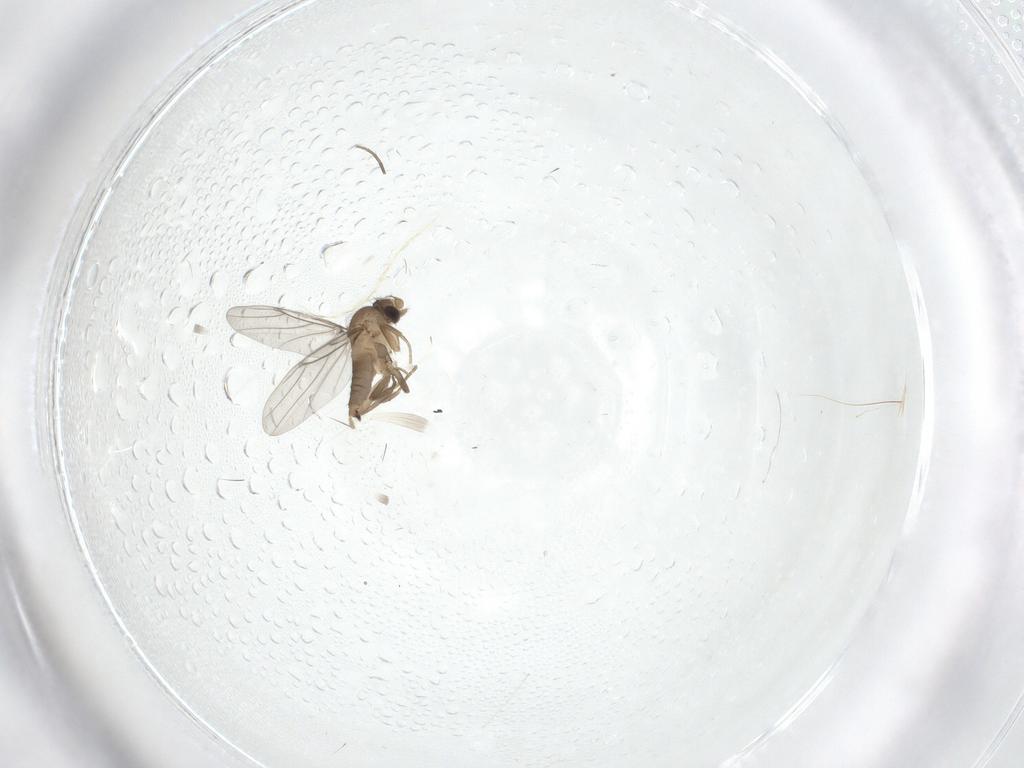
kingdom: Animalia
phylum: Arthropoda
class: Insecta
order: Diptera
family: Cecidomyiidae
